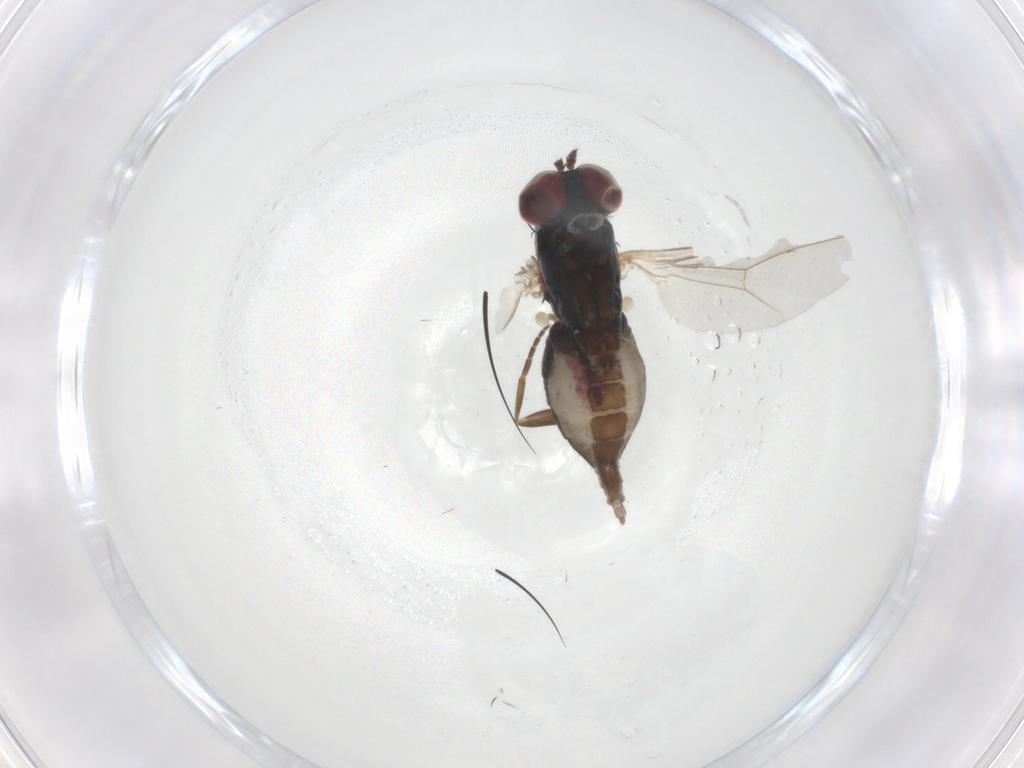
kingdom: Animalia
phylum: Arthropoda
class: Insecta
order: Diptera
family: Dolichopodidae
